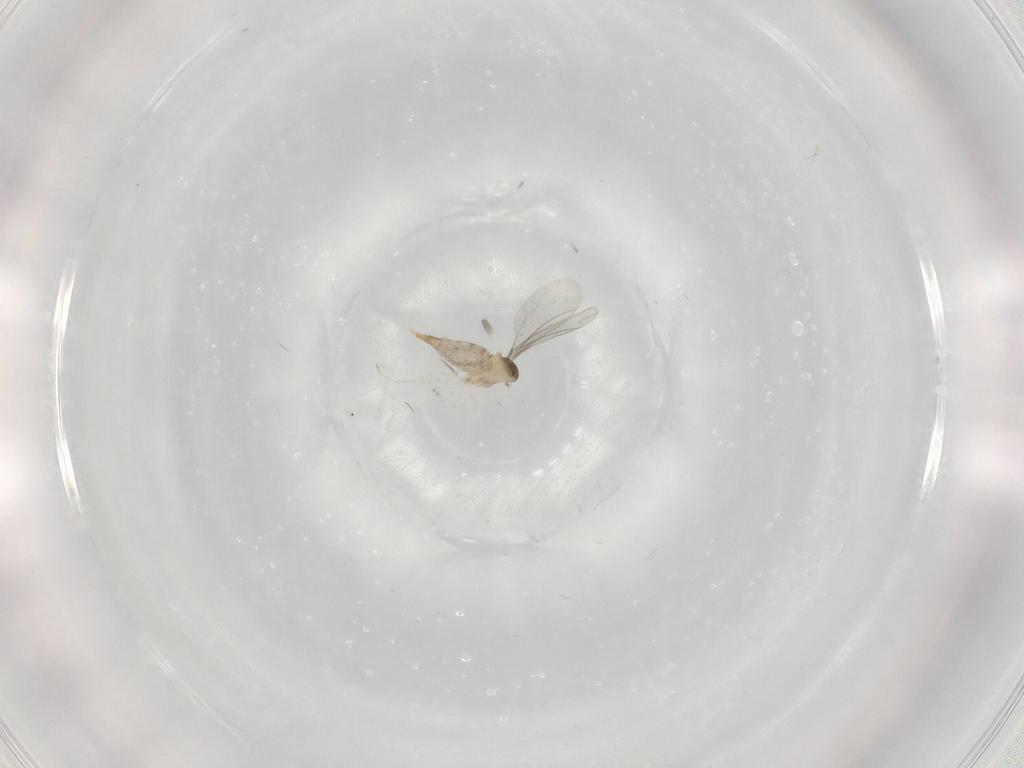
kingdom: Animalia
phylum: Arthropoda
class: Insecta
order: Diptera
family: Cecidomyiidae
